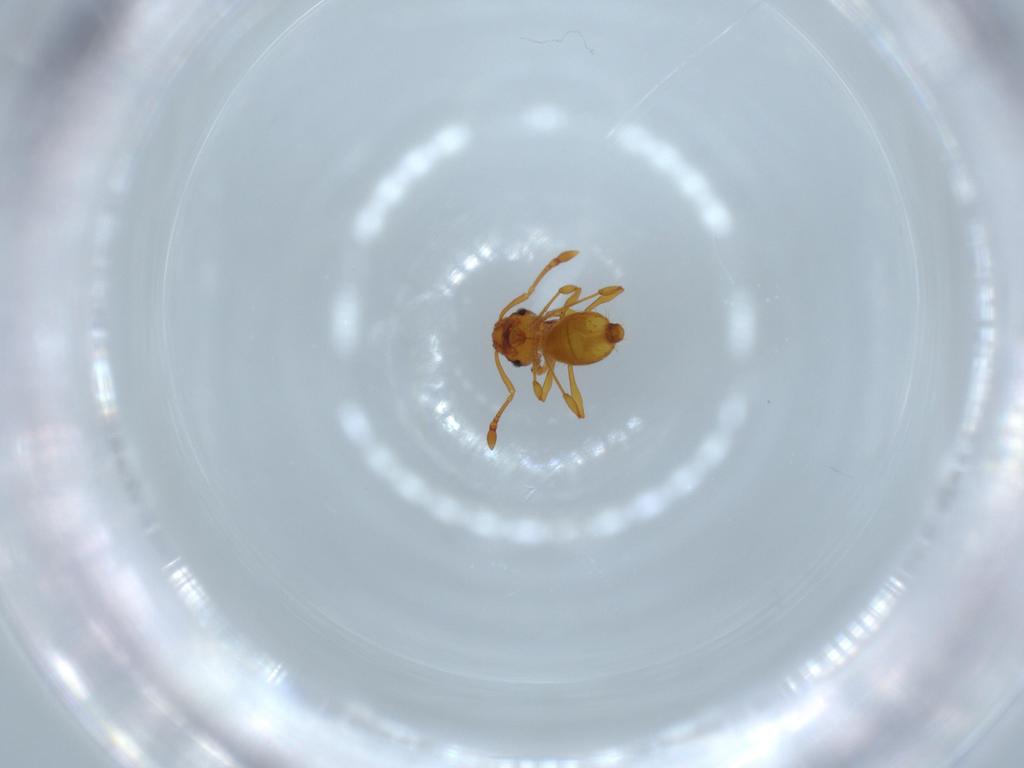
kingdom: Animalia
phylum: Arthropoda
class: Insecta
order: Hymenoptera
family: Formicidae
